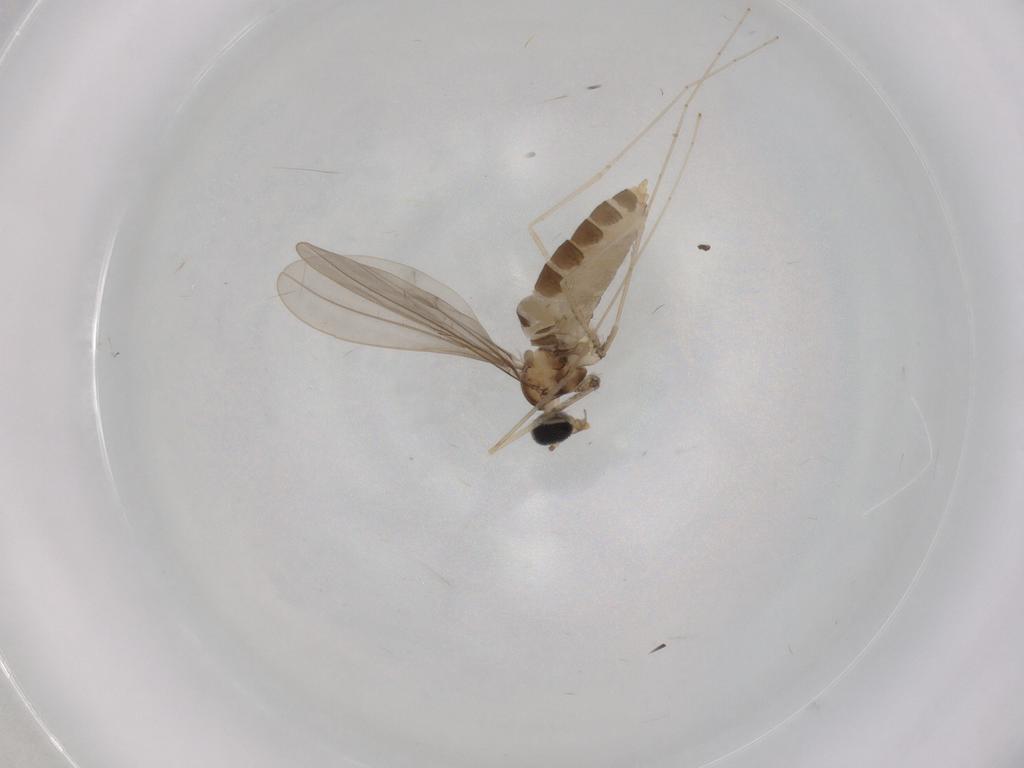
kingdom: Animalia
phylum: Arthropoda
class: Insecta
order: Diptera
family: Cecidomyiidae
